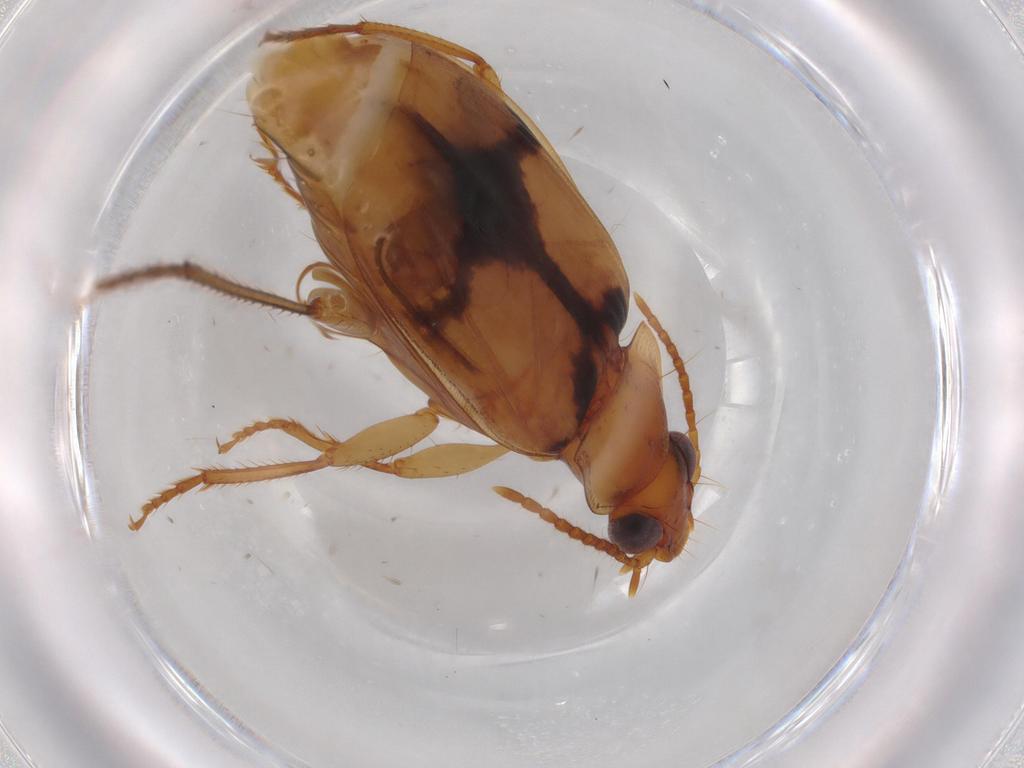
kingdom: Animalia
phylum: Arthropoda
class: Insecta
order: Coleoptera
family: Carabidae
